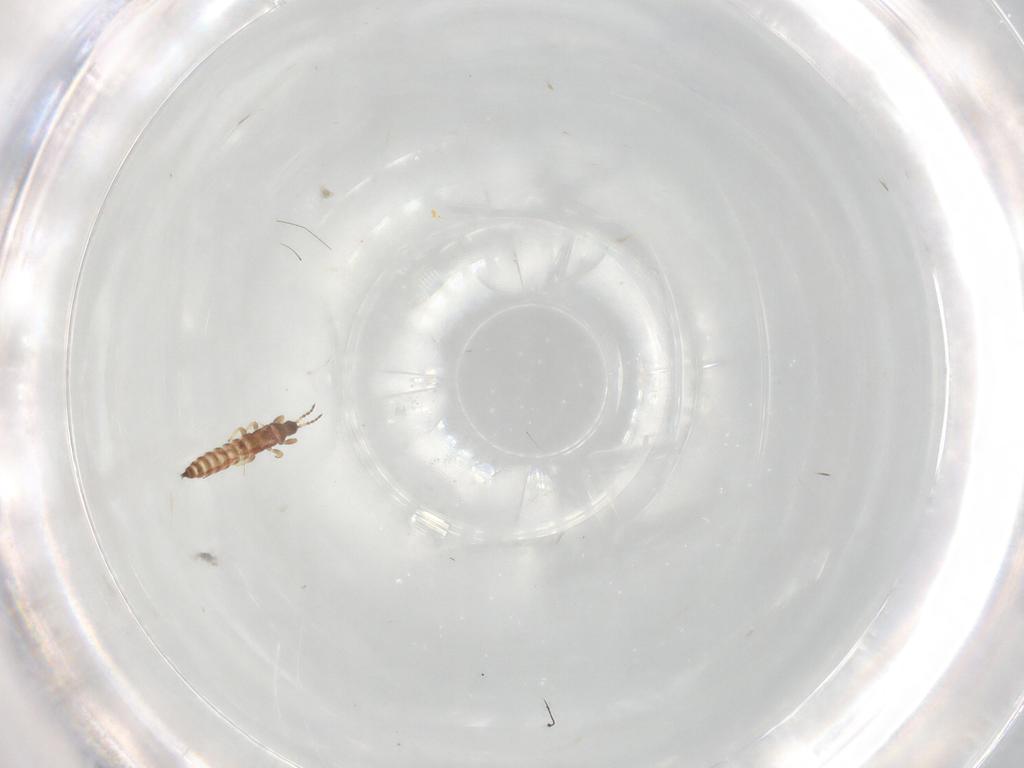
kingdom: Animalia
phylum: Arthropoda
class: Insecta
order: Thysanoptera
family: Phlaeothripidae
